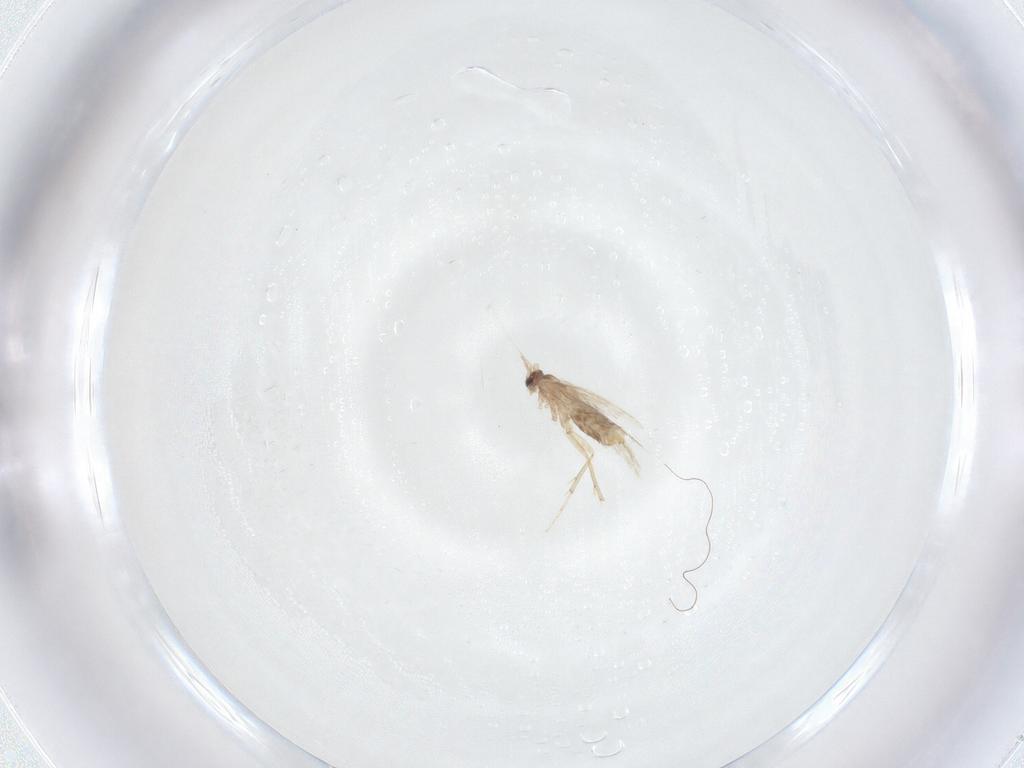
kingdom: Animalia
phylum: Arthropoda
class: Insecta
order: Lepidoptera
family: Nepticulidae
